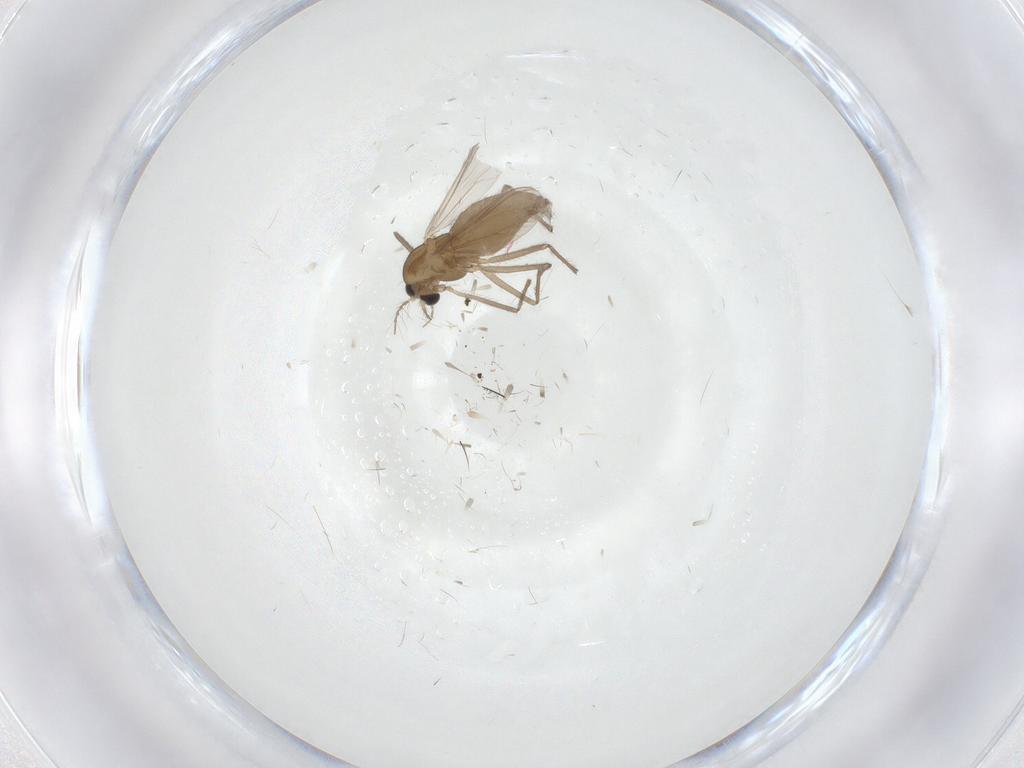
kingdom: Animalia
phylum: Arthropoda
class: Insecta
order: Diptera
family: Chironomidae
